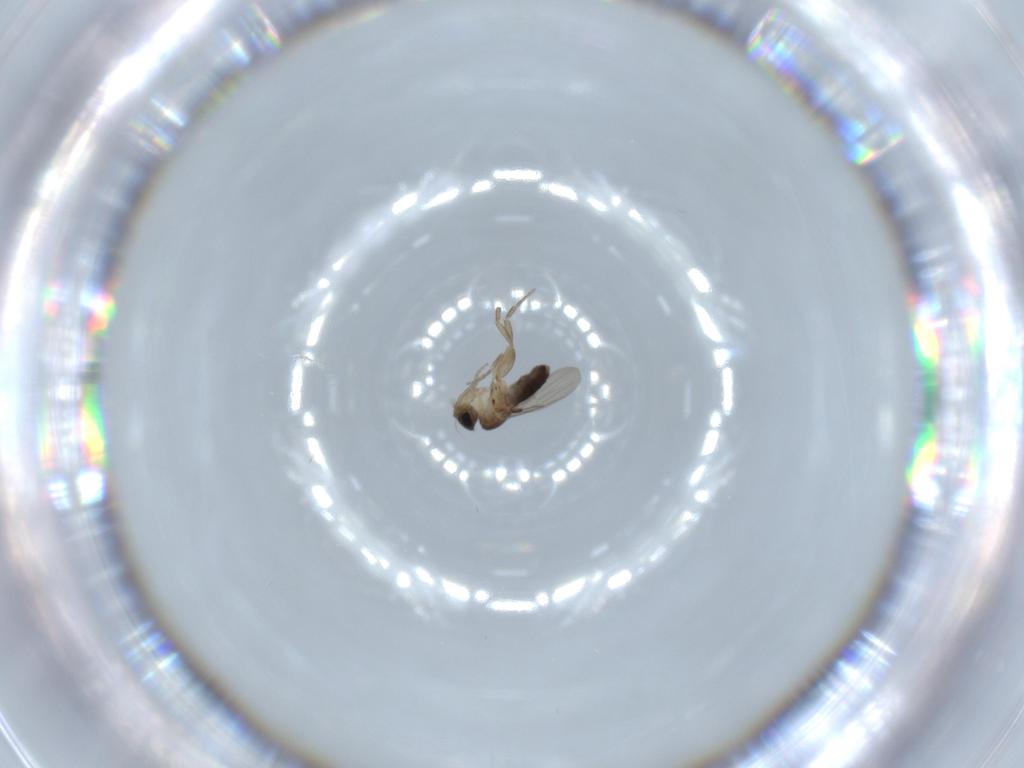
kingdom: Animalia
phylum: Arthropoda
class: Insecta
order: Diptera
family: Phoridae
